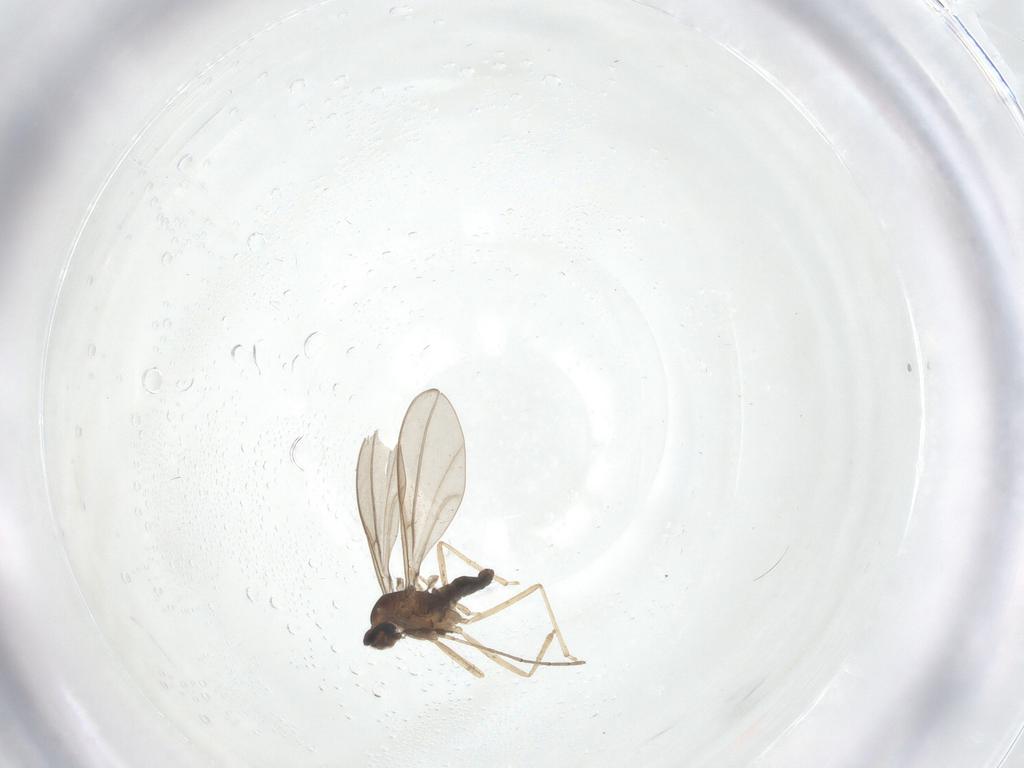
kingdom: Animalia
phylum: Arthropoda
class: Insecta
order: Diptera
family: Cecidomyiidae
